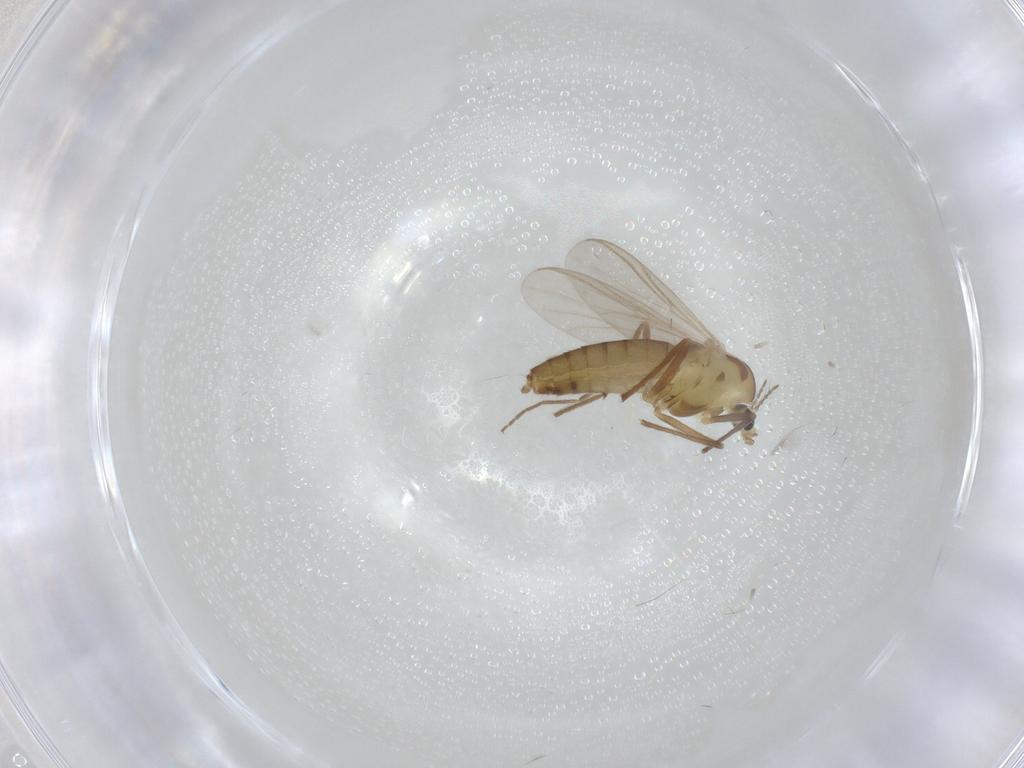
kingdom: Animalia
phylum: Arthropoda
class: Insecta
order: Diptera
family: Chironomidae
